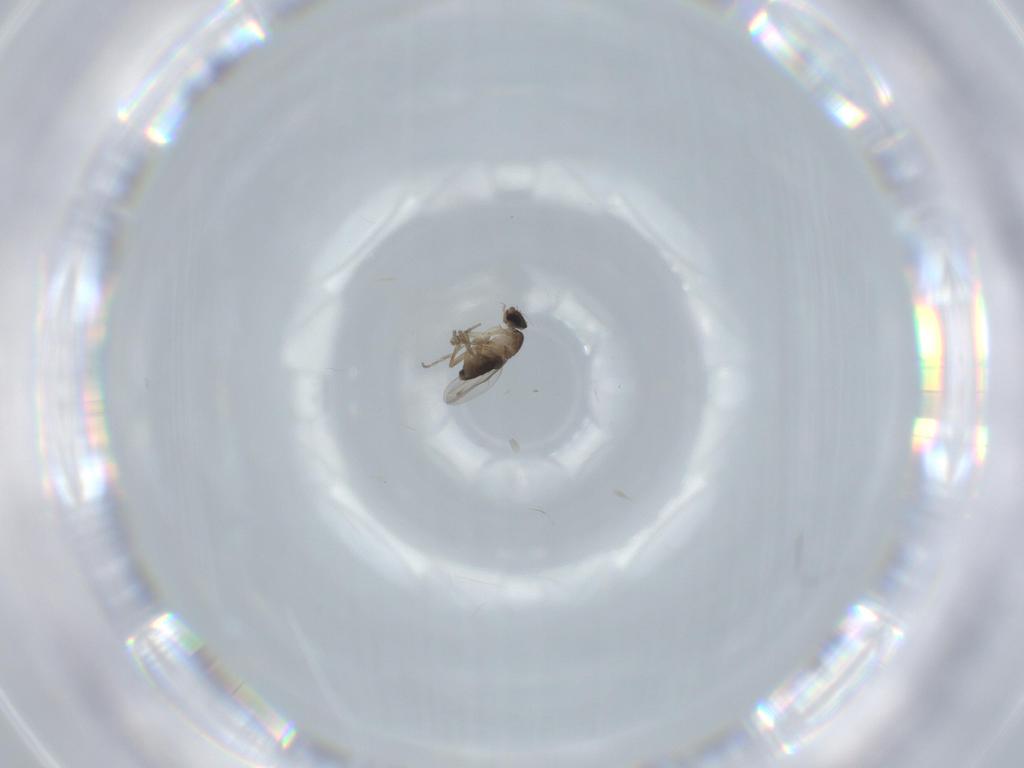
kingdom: Animalia
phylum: Arthropoda
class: Insecta
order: Diptera
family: Phoridae
